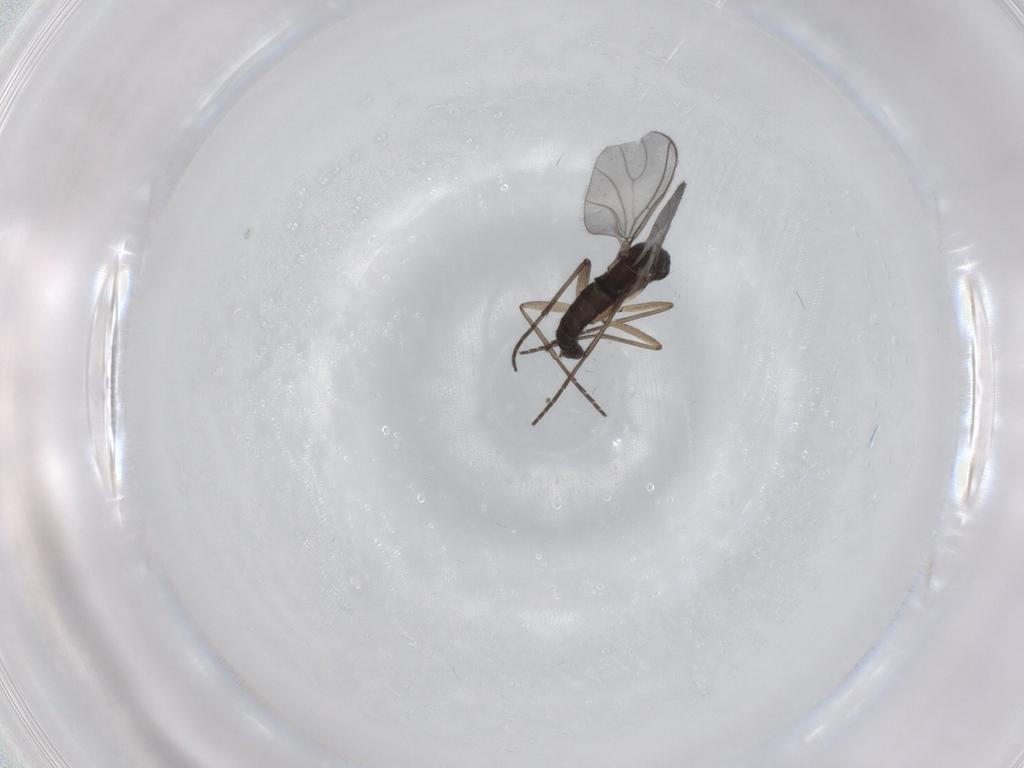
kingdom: Animalia
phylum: Arthropoda
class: Insecta
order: Diptera
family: Sciaridae
